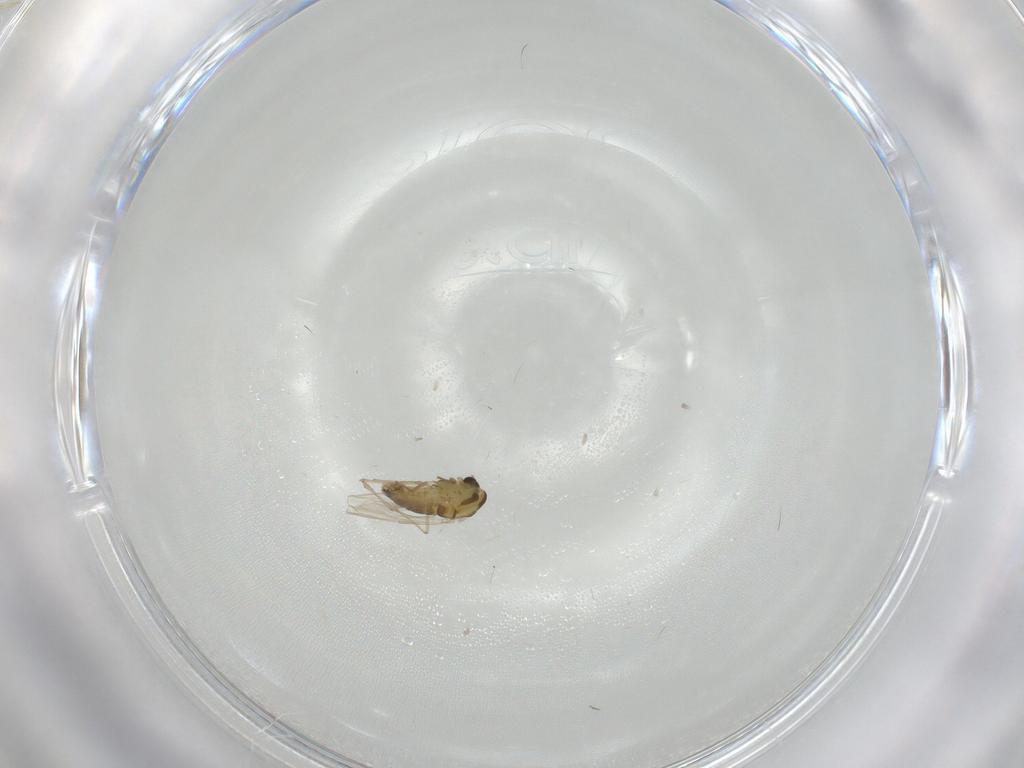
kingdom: Animalia
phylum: Arthropoda
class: Insecta
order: Diptera
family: Chironomidae
